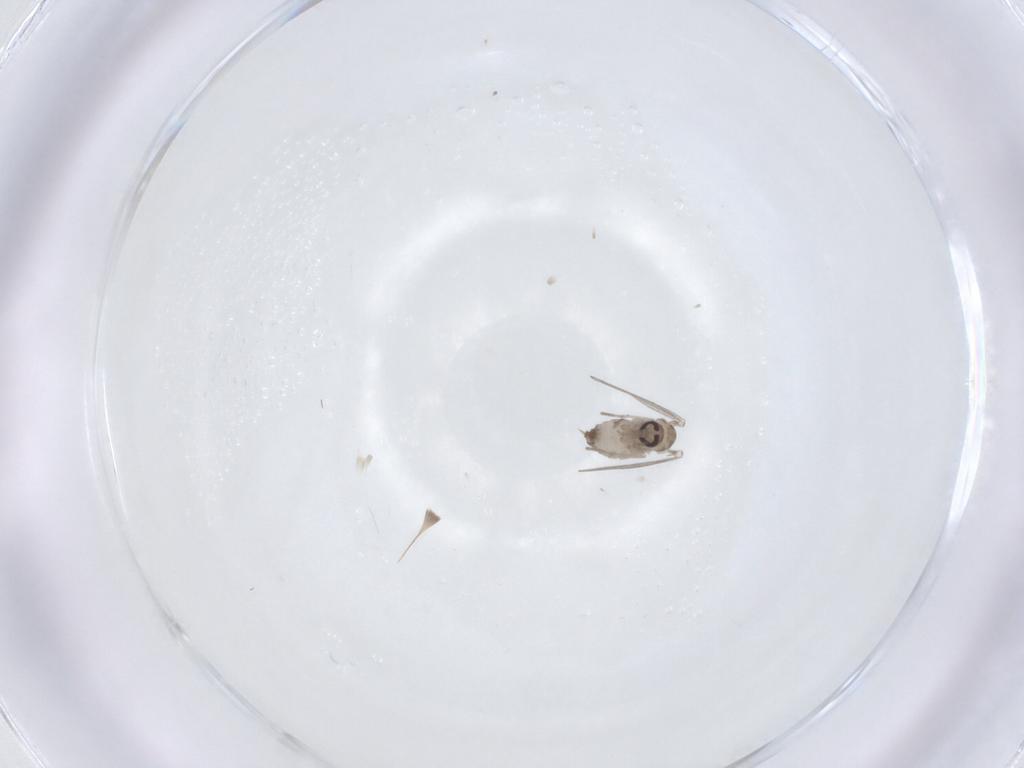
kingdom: Animalia
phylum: Arthropoda
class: Insecta
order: Diptera
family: Psychodidae
